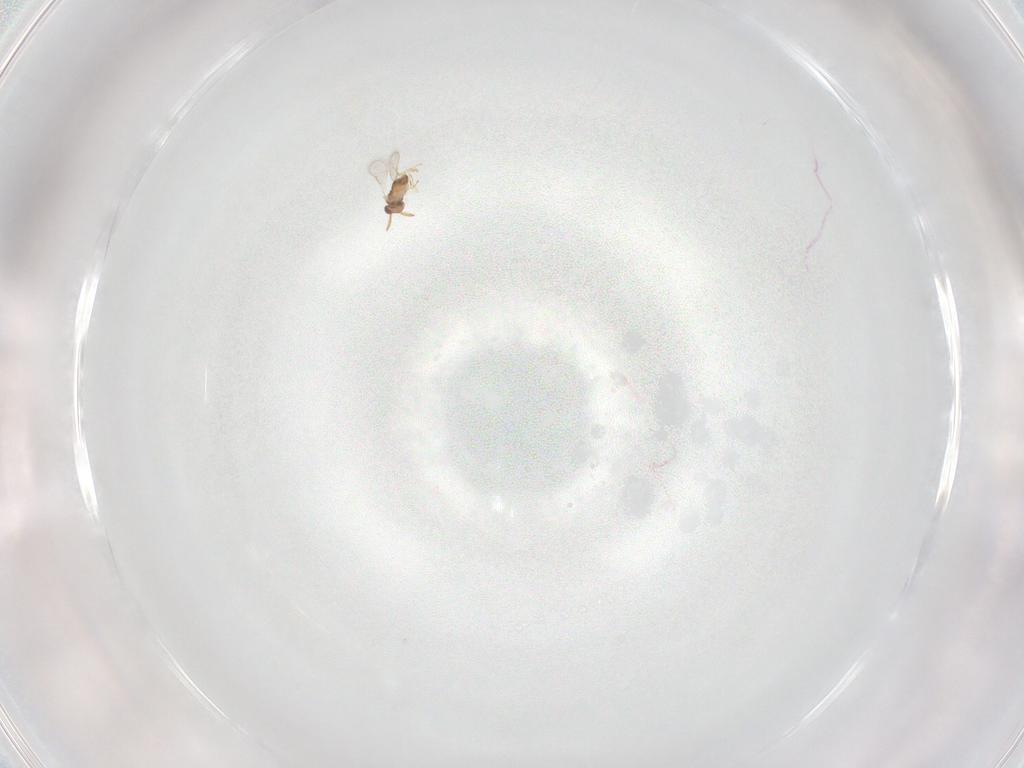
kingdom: Animalia
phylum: Arthropoda
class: Insecta
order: Hymenoptera
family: Aphelinidae
